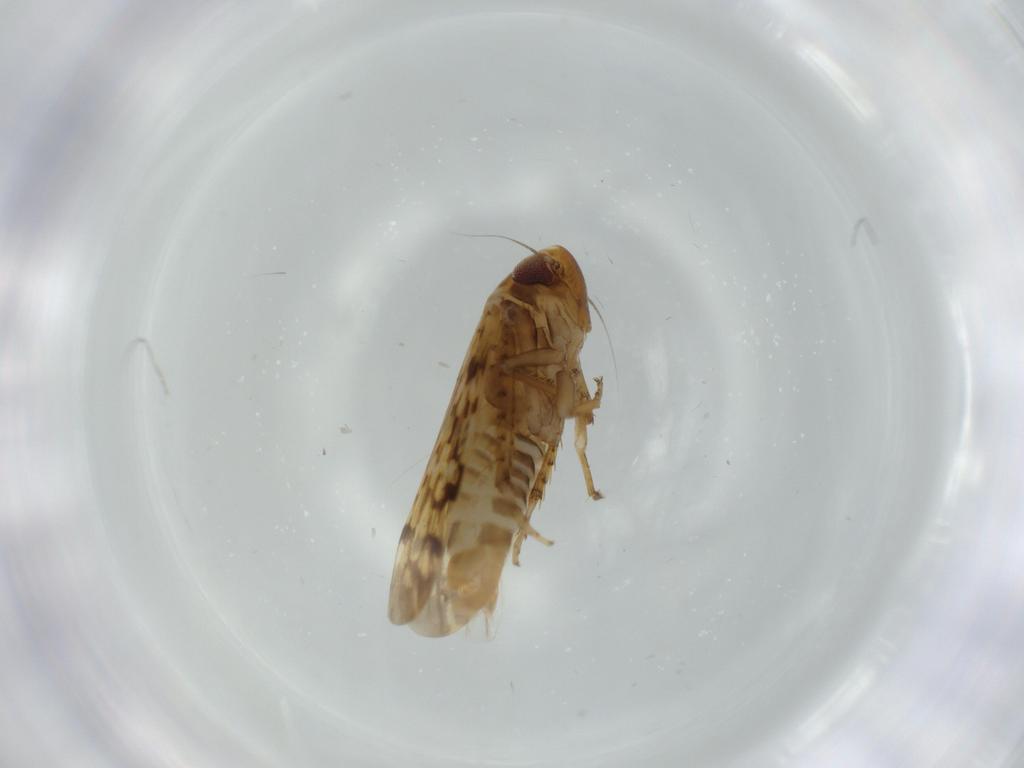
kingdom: Animalia
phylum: Arthropoda
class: Insecta
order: Hemiptera
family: Cicadellidae
